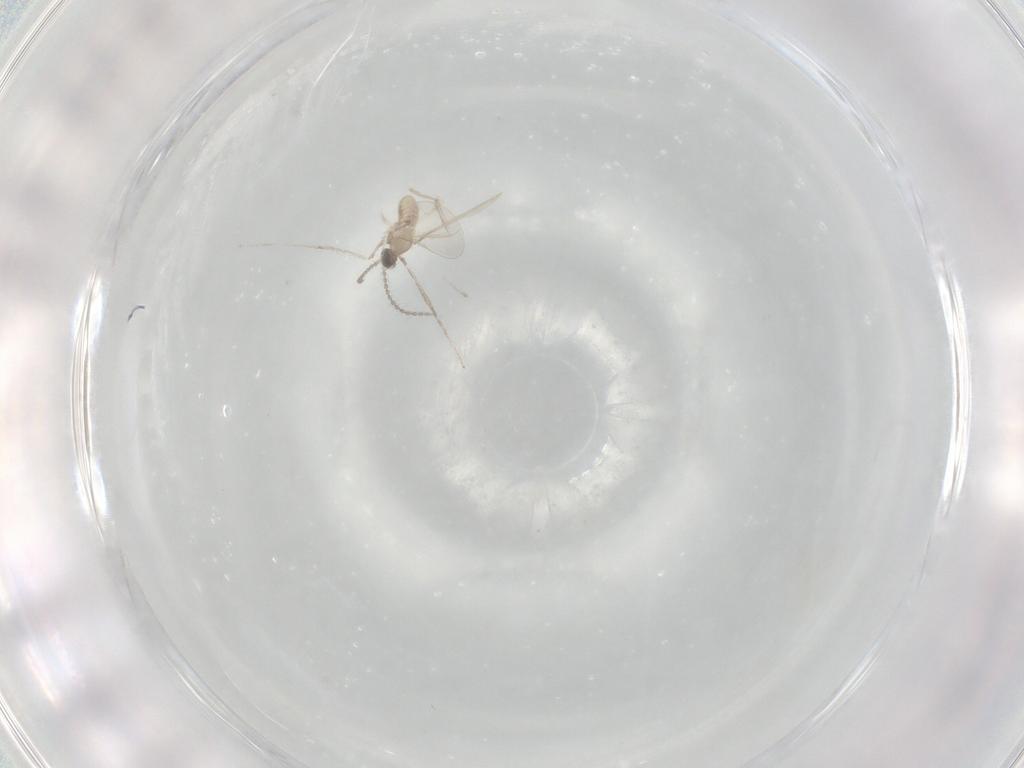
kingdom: Animalia
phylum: Arthropoda
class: Insecta
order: Diptera
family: Cecidomyiidae
